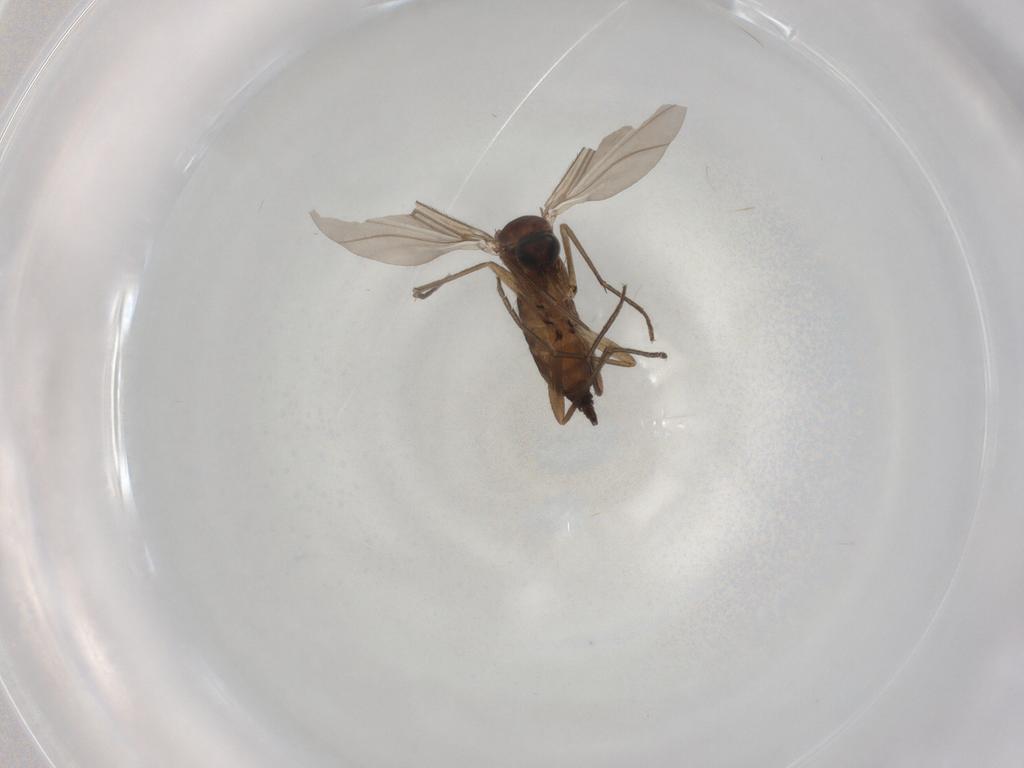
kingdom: Animalia
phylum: Arthropoda
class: Insecta
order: Diptera
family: Sciaridae
